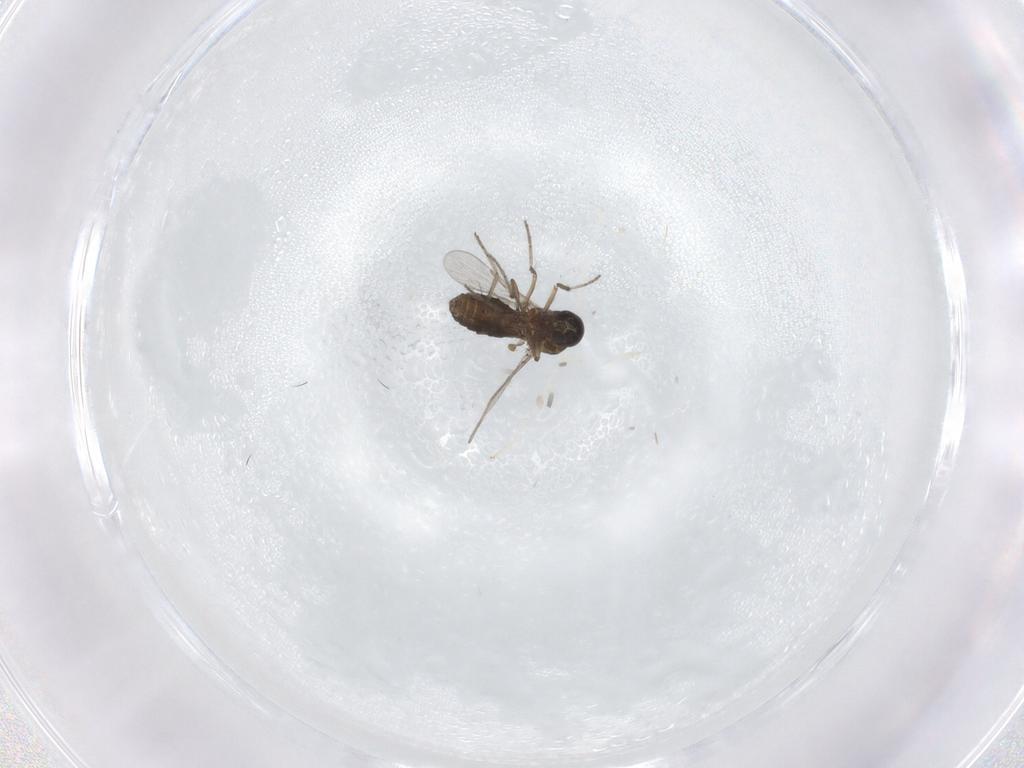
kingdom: Animalia
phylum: Arthropoda
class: Insecta
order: Diptera
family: Ceratopogonidae
